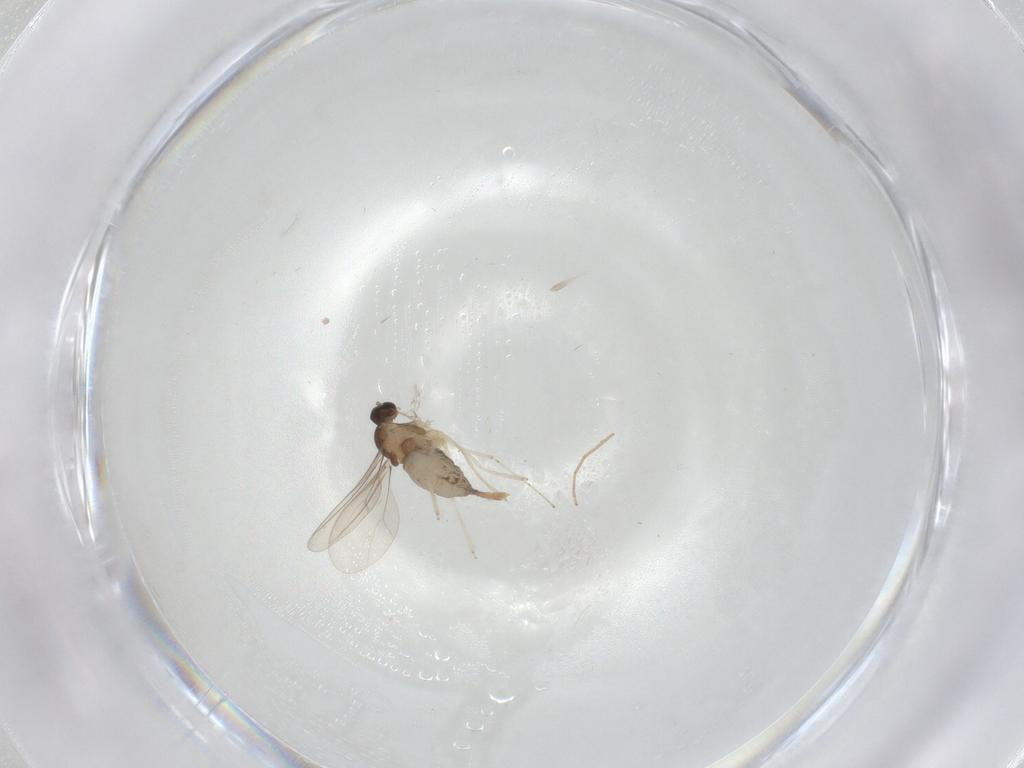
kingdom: Animalia
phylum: Arthropoda
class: Insecta
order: Diptera
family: Cecidomyiidae
